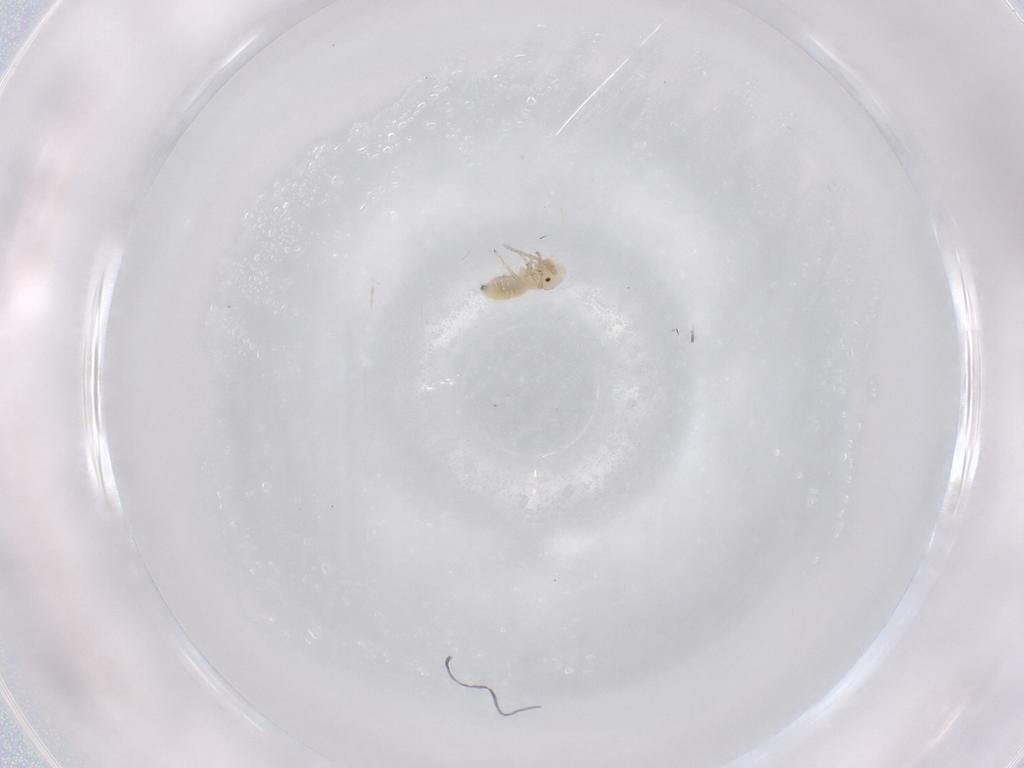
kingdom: Animalia
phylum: Arthropoda
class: Insecta
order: Psocodea
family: Caeciliusidae
